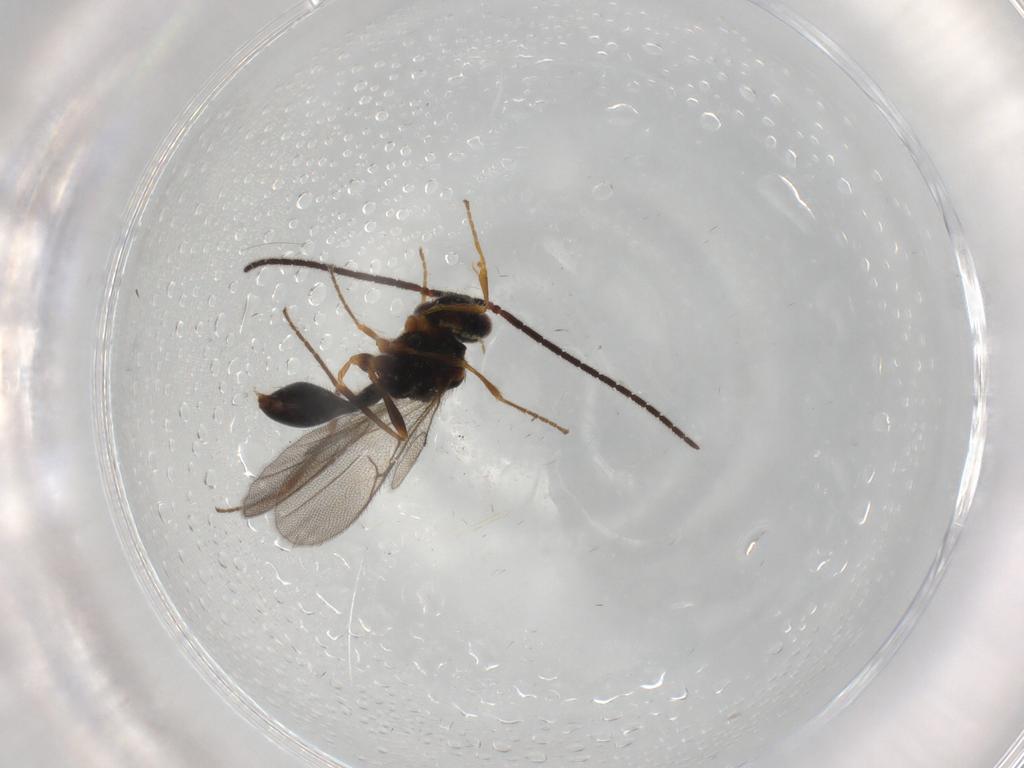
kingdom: Animalia
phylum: Arthropoda
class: Insecta
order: Hymenoptera
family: Diapriidae
